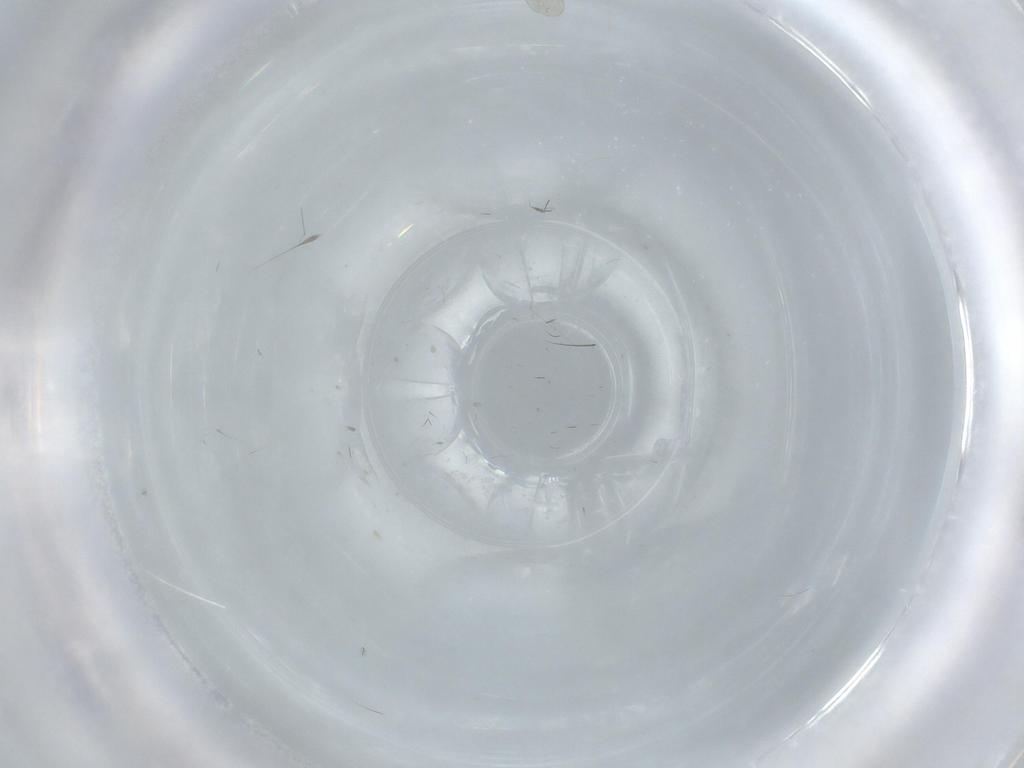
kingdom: Animalia
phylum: Arthropoda
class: Insecta
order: Diptera
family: Cecidomyiidae
